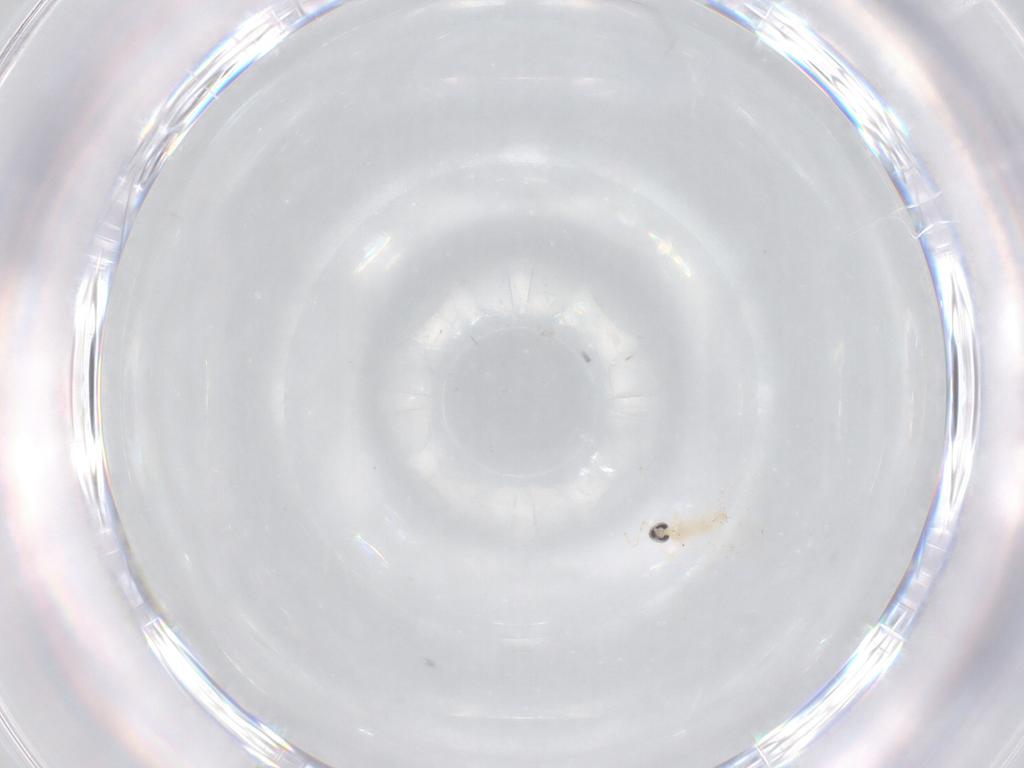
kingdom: Animalia
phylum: Arthropoda
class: Insecta
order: Diptera
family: Cecidomyiidae
